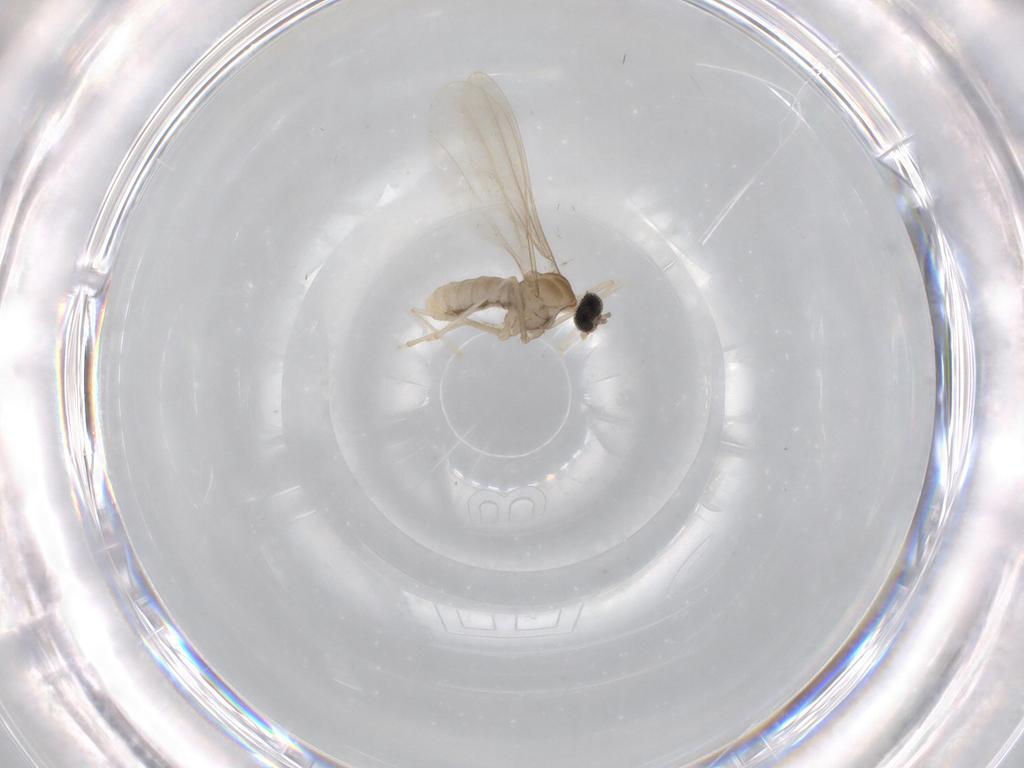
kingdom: Animalia
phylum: Arthropoda
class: Insecta
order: Diptera
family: Cecidomyiidae
